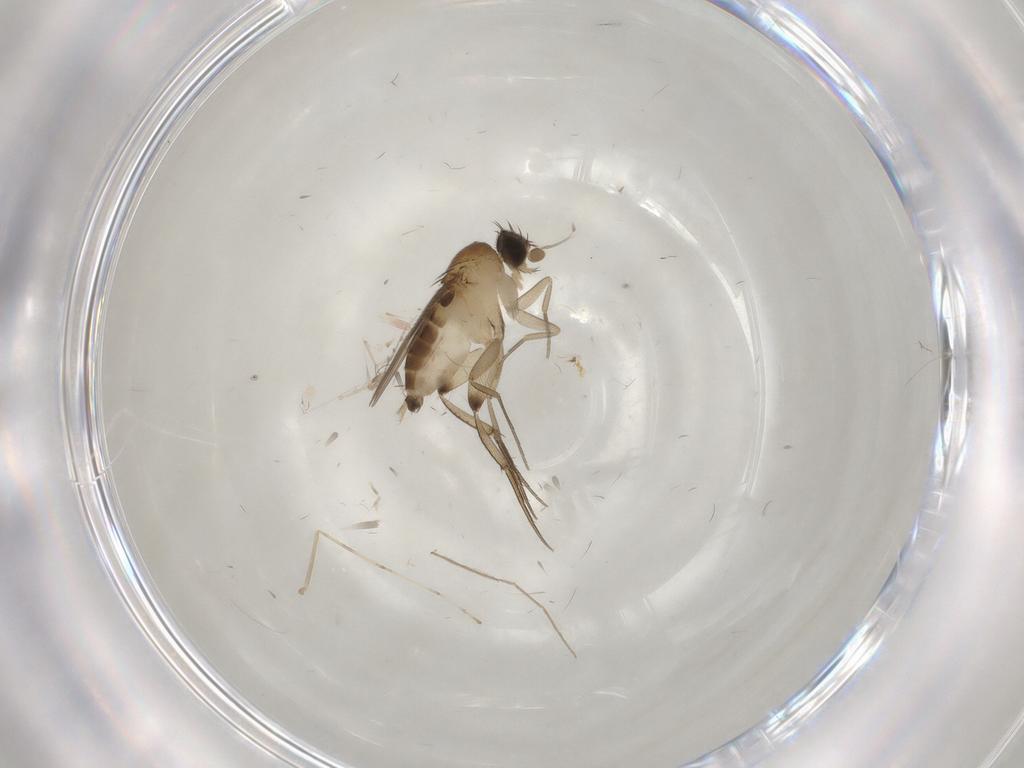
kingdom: Animalia
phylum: Arthropoda
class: Insecta
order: Diptera
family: Phoridae
